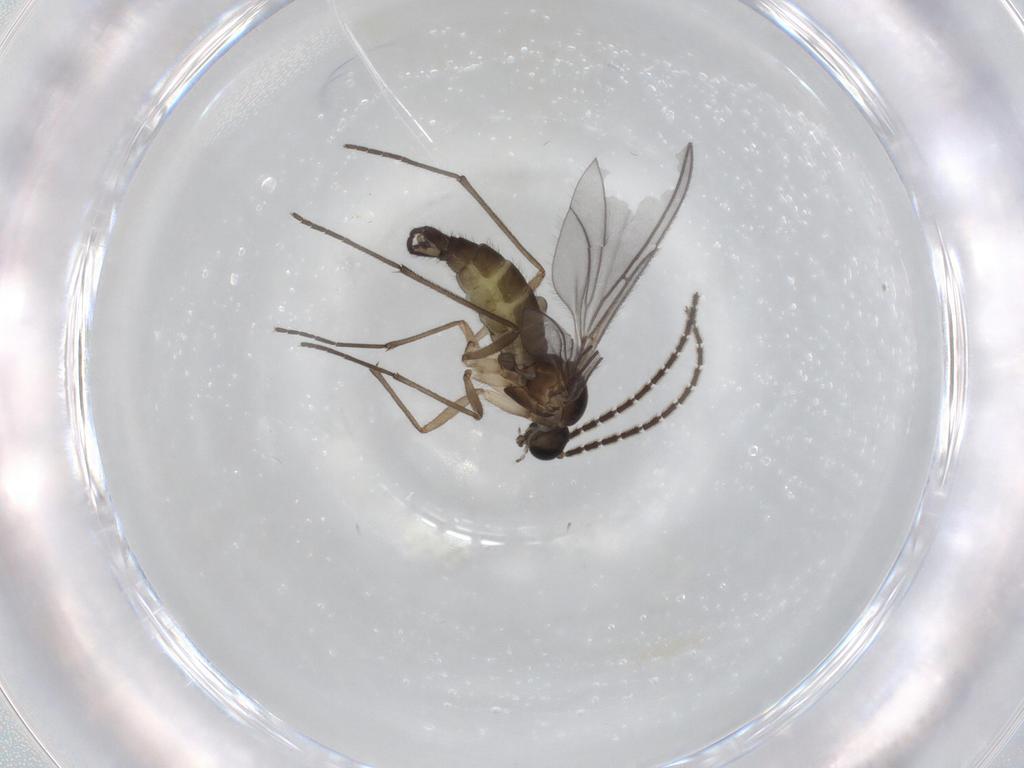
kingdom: Animalia
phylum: Arthropoda
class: Insecta
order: Diptera
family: Sciaridae
